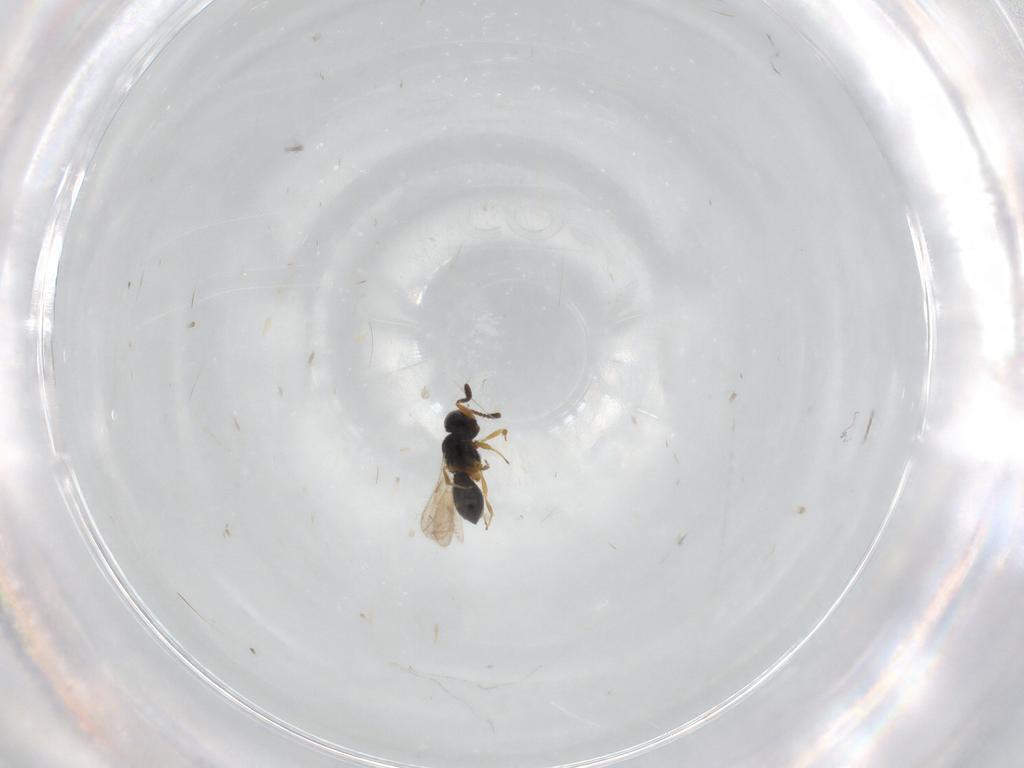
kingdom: Animalia
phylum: Arthropoda
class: Insecta
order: Hymenoptera
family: Scelionidae
